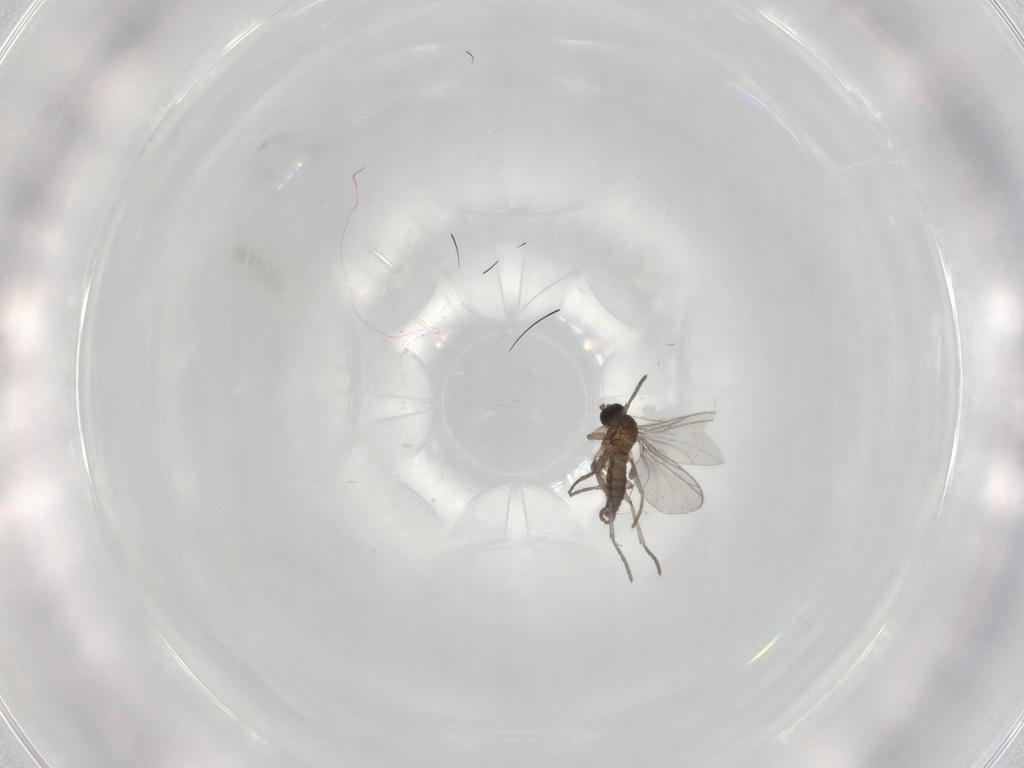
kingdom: Animalia
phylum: Arthropoda
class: Insecta
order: Diptera
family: Dolichopodidae
